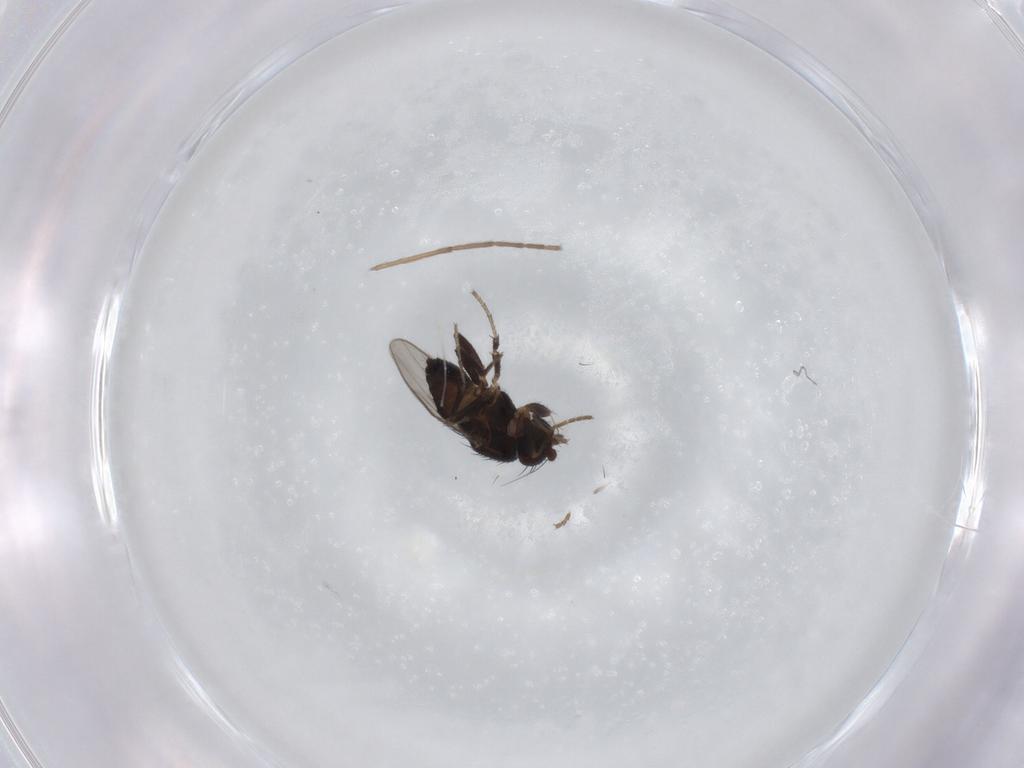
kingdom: Animalia
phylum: Arthropoda
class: Insecta
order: Diptera
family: Sphaeroceridae
